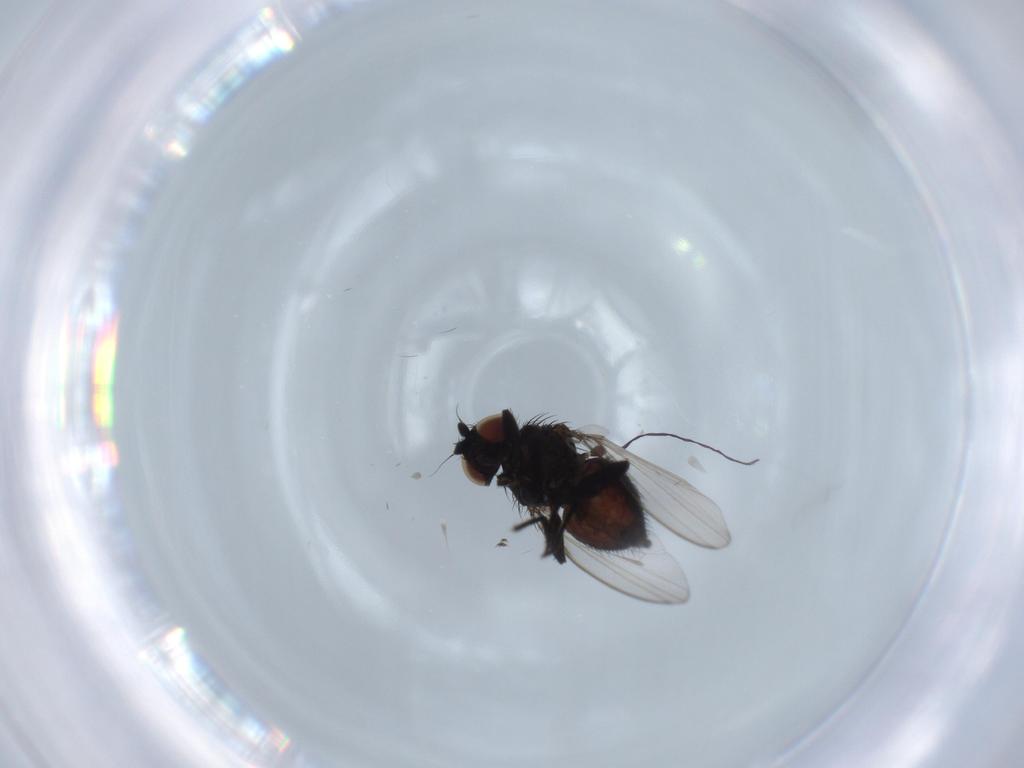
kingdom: Animalia
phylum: Arthropoda
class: Insecta
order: Diptera
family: Milichiidae
